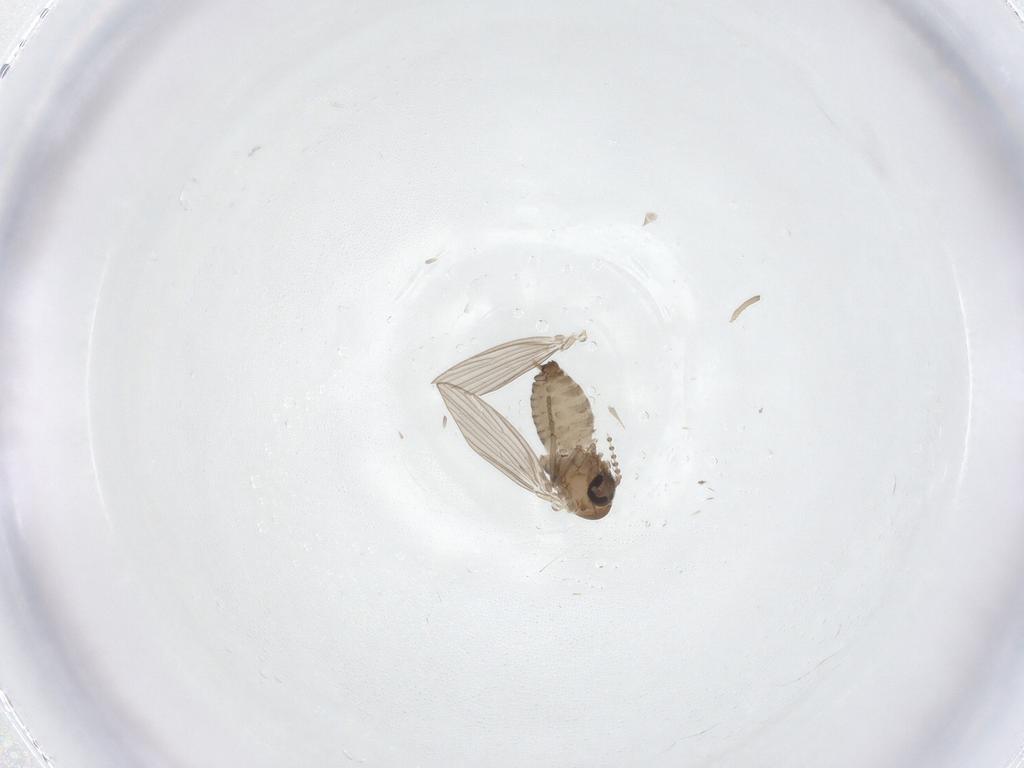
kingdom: Animalia
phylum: Arthropoda
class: Insecta
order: Diptera
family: Psychodidae
